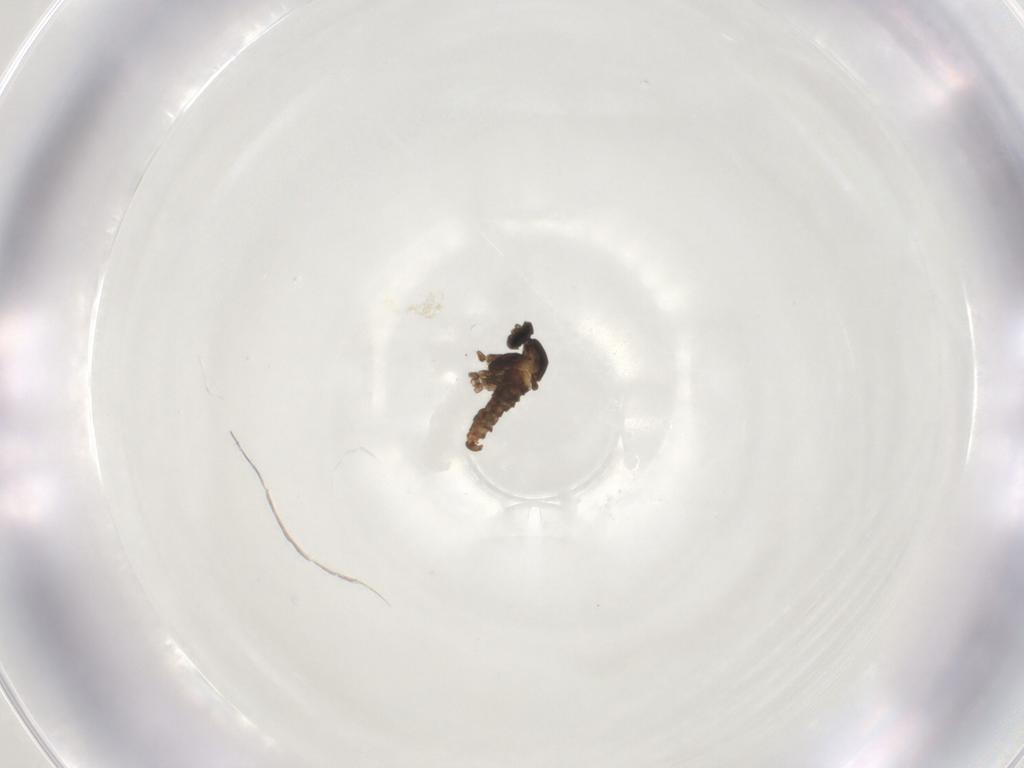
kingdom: Animalia
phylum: Arthropoda
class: Insecta
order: Diptera
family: Cecidomyiidae
